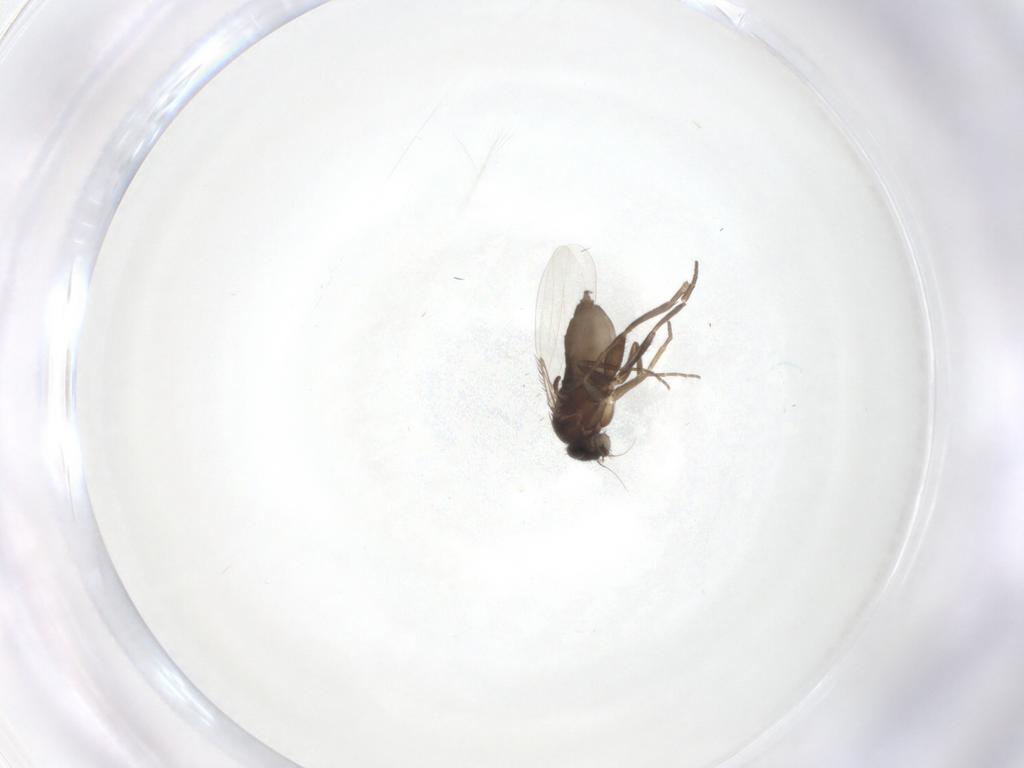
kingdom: Animalia
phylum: Arthropoda
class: Insecta
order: Diptera
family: Phoridae
